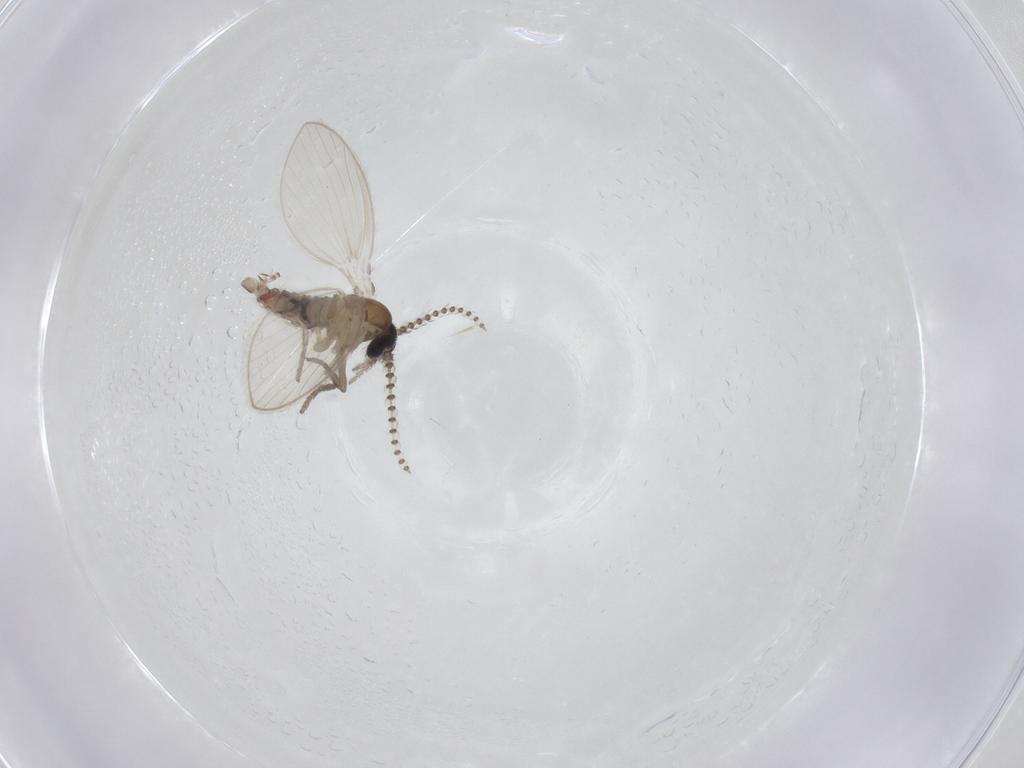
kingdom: Animalia
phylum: Arthropoda
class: Insecta
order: Diptera
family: Psychodidae
